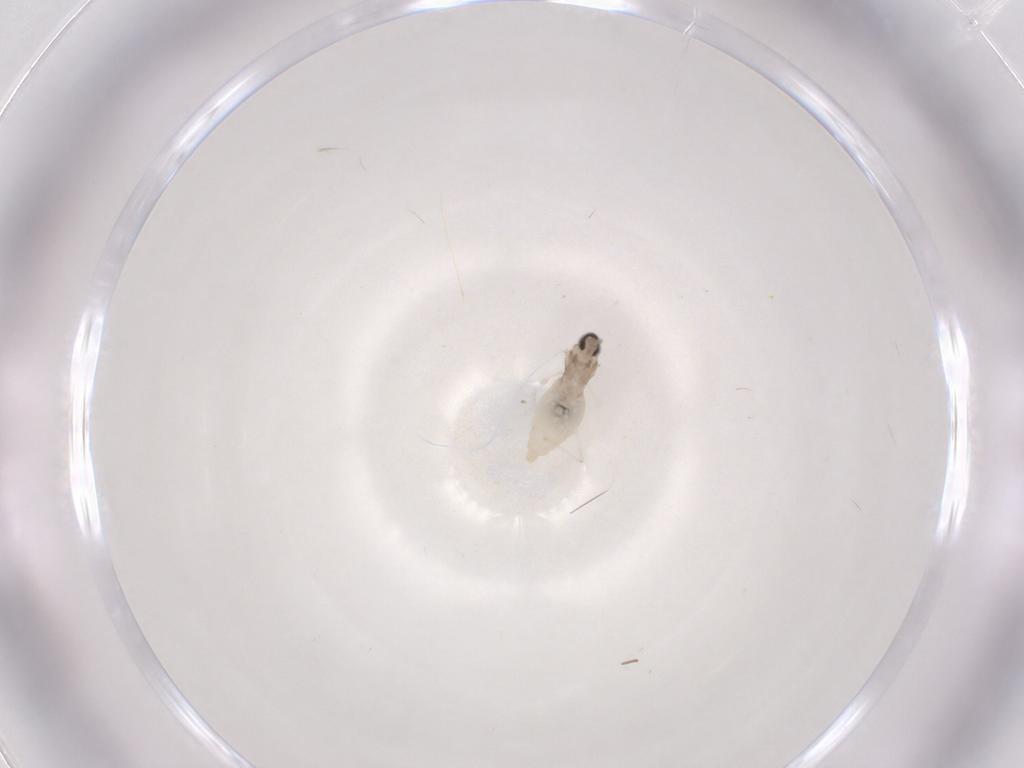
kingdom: Animalia
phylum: Arthropoda
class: Insecta
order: Diptera
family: Cecidomyiidae
